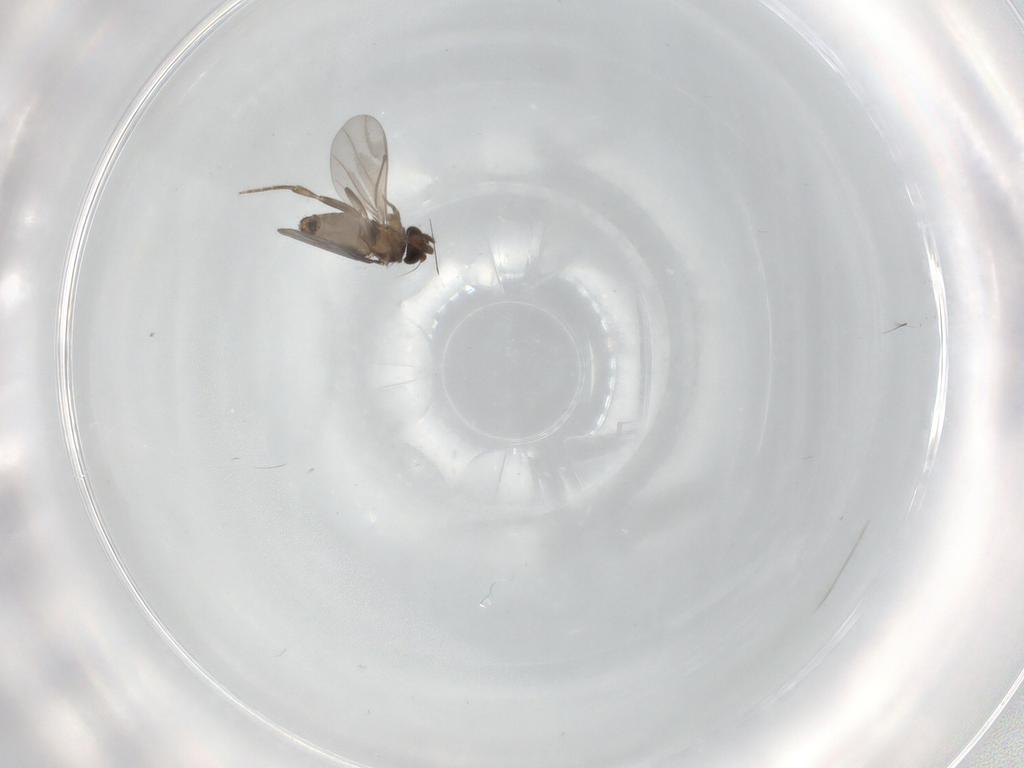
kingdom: Animalia
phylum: Arthropoda
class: Insecta
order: Diptera
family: Cecidomyiidae
